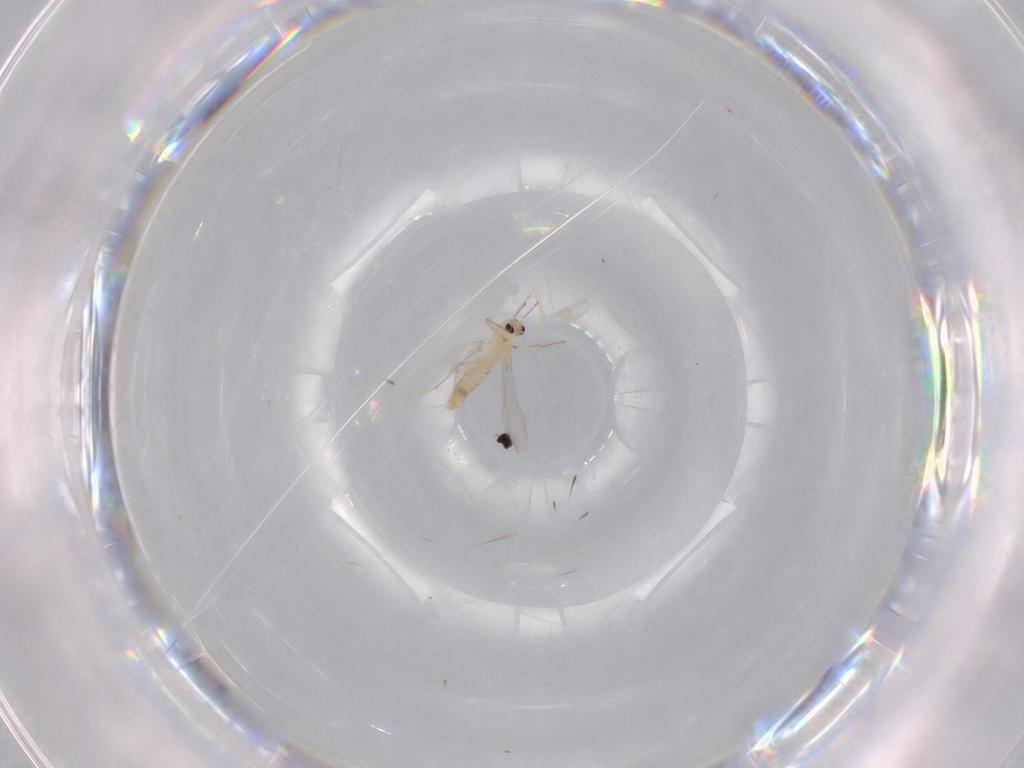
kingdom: Animalia
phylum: Arthropoda
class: Insecta
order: Diptera
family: Chironomidae
